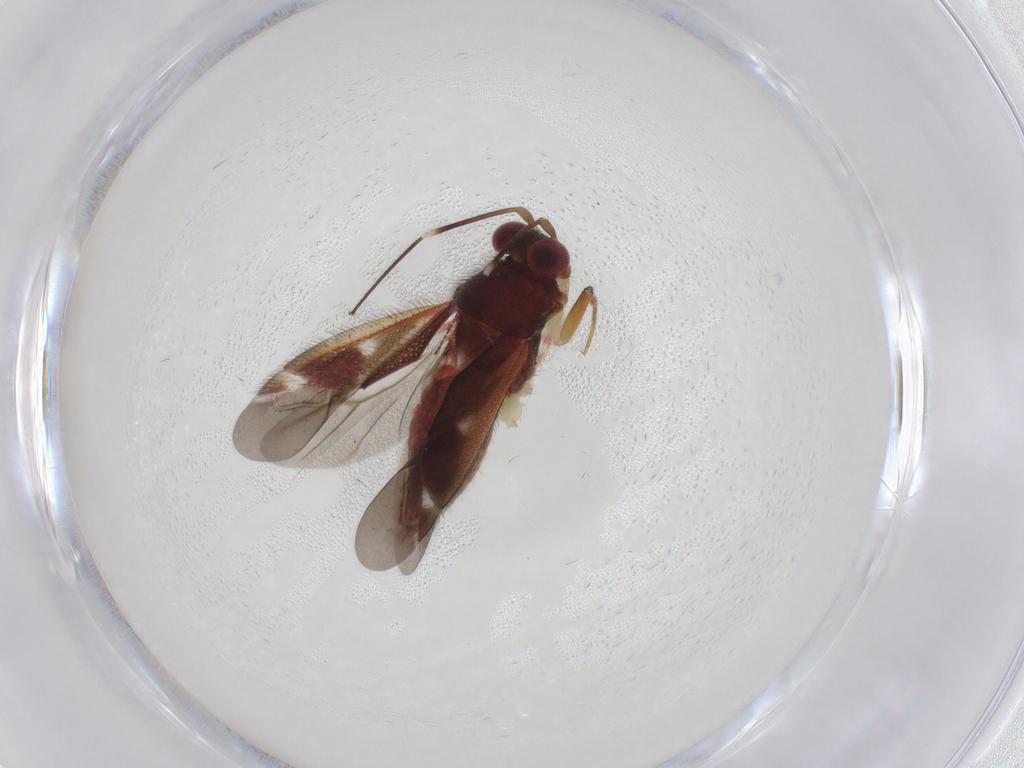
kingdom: Animalia
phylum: Arthropoda
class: Insecta
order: Hemiptera
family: Miridae
